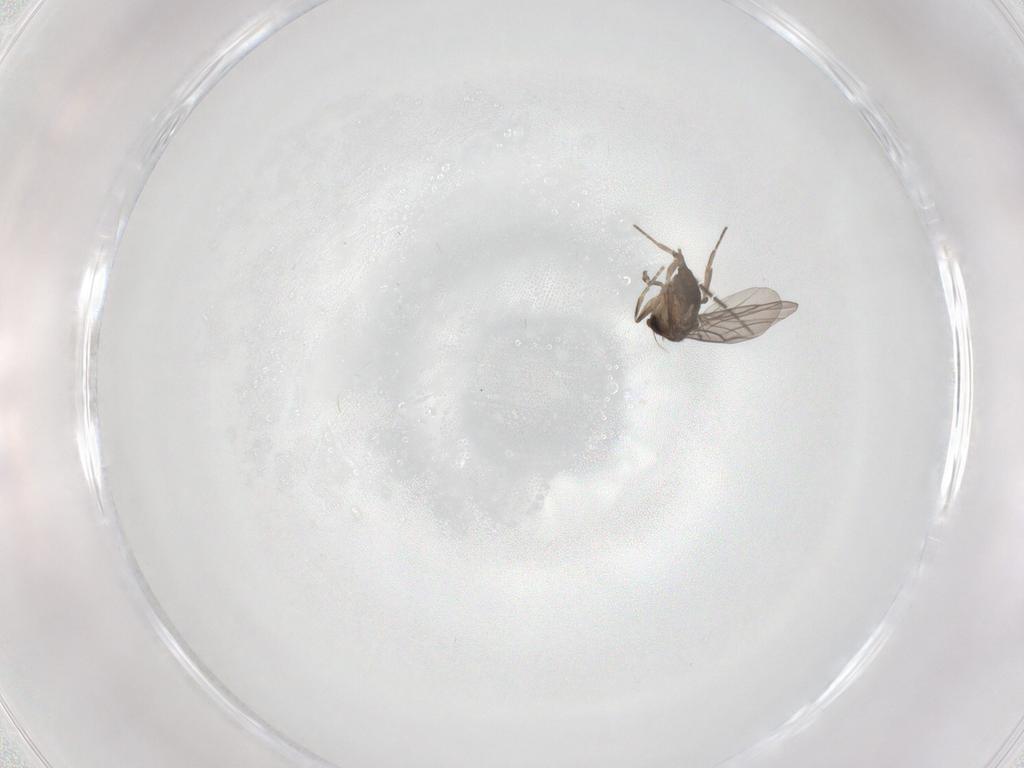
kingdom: Animalia
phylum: Arthropoda
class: Insecta
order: Diptera
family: Phoridae
